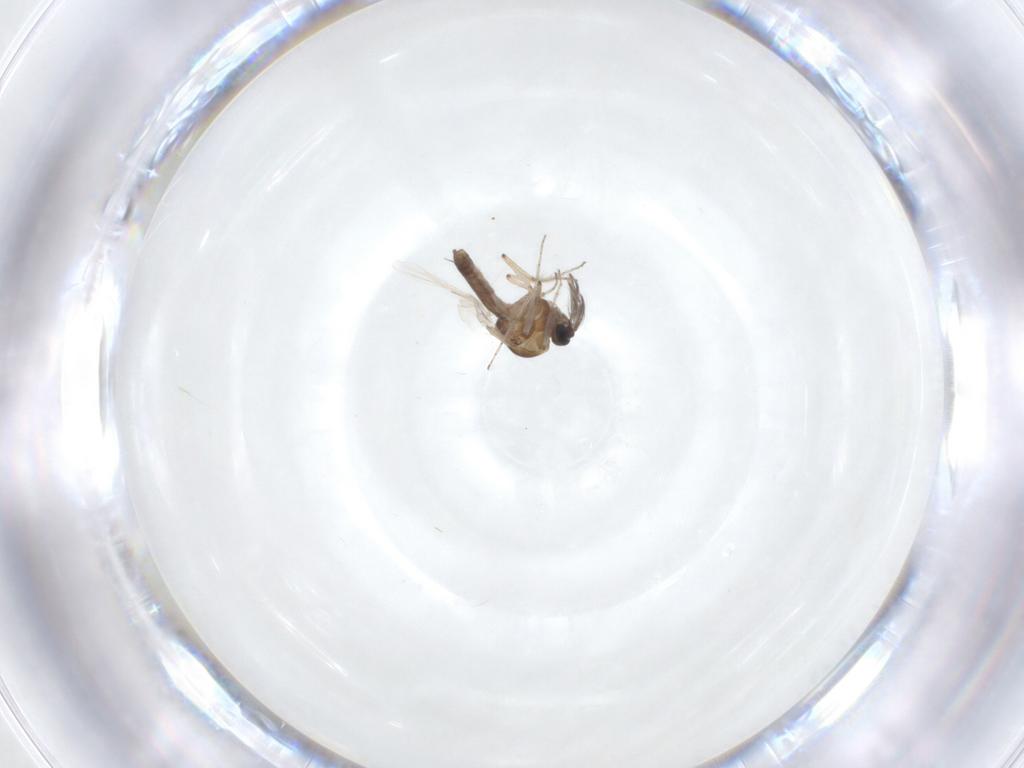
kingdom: Animalia
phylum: Arthropoda
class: Insecta
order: Diptera
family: Ceratopogonidae
